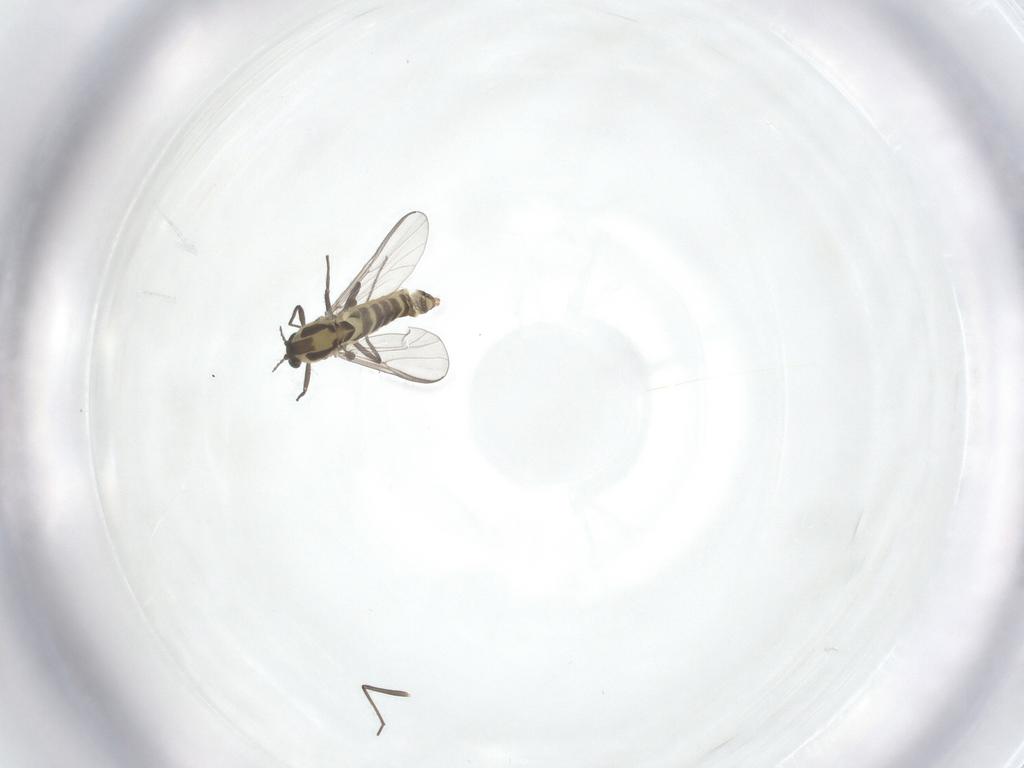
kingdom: Animalia
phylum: Arthropoda
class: Insecta
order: Diptera
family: Chironomidae
